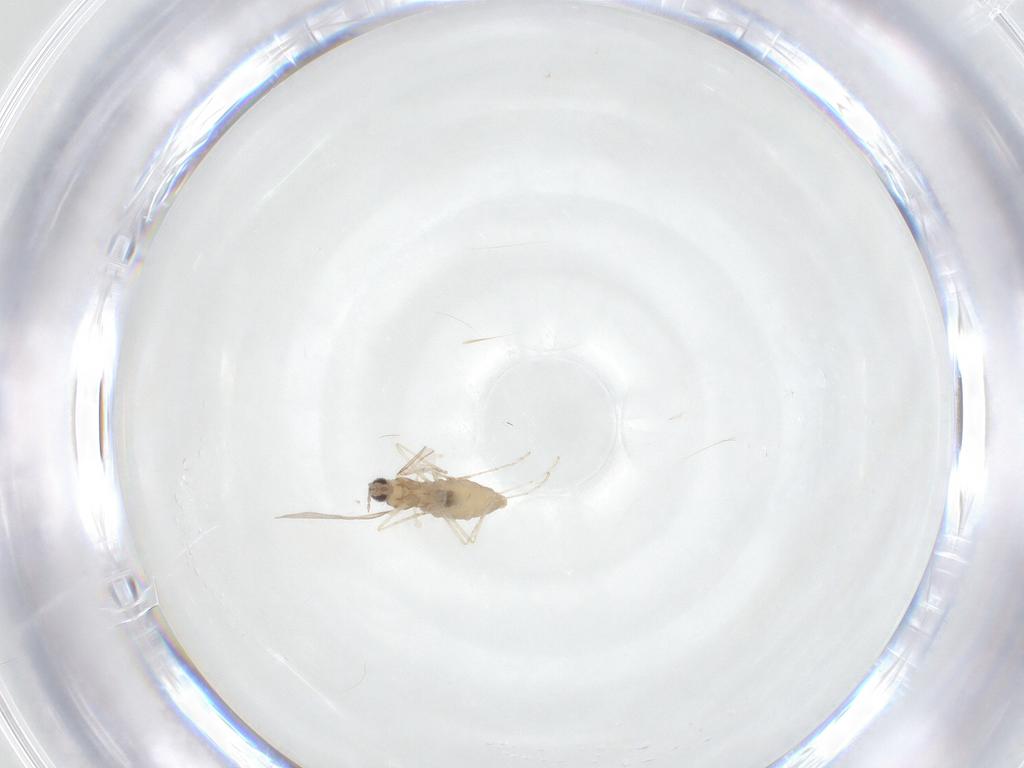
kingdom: Animalia
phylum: Arthropoda
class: Insecta
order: Diptera
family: Cecidomyiidae
